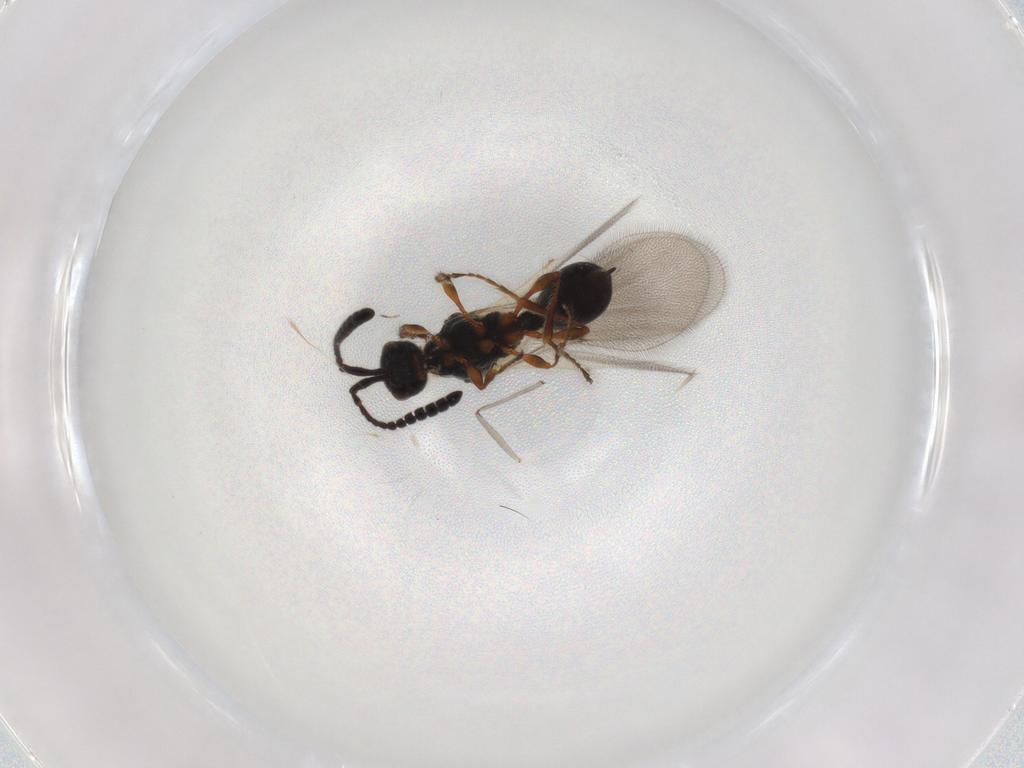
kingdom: Animalia
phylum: Arthropoda
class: Insecta
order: Hymenoptera
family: Diapriidae
